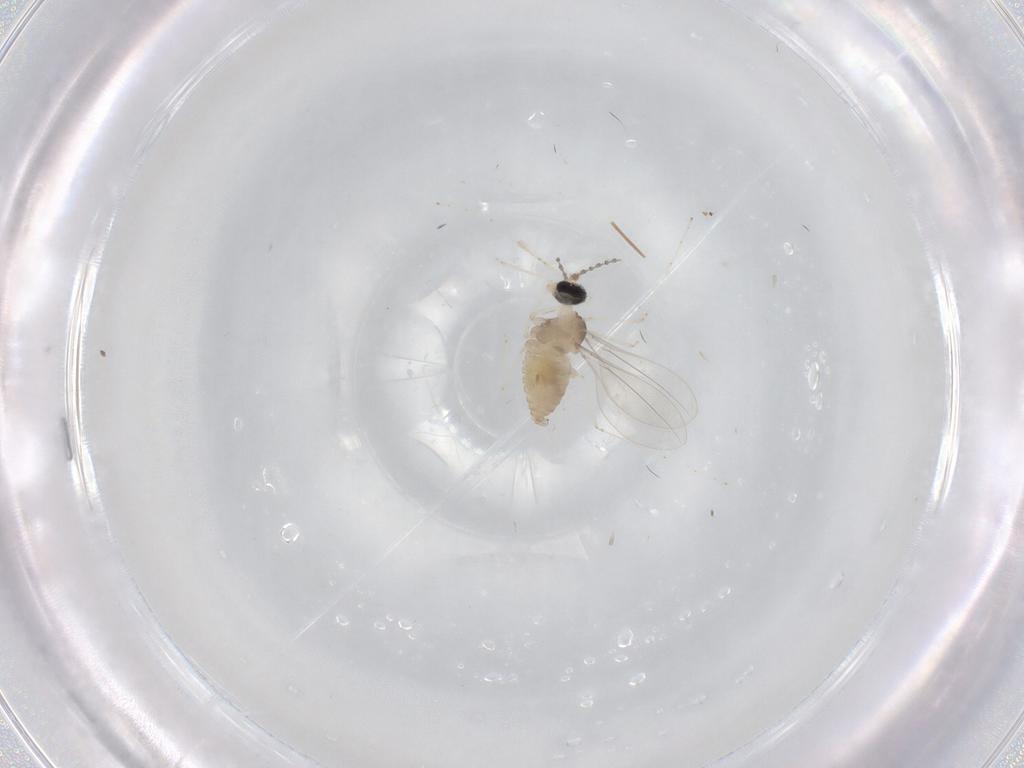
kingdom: Animalia
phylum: Arthropoda
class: Insecta
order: Diptera
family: Cecidomyiidae
